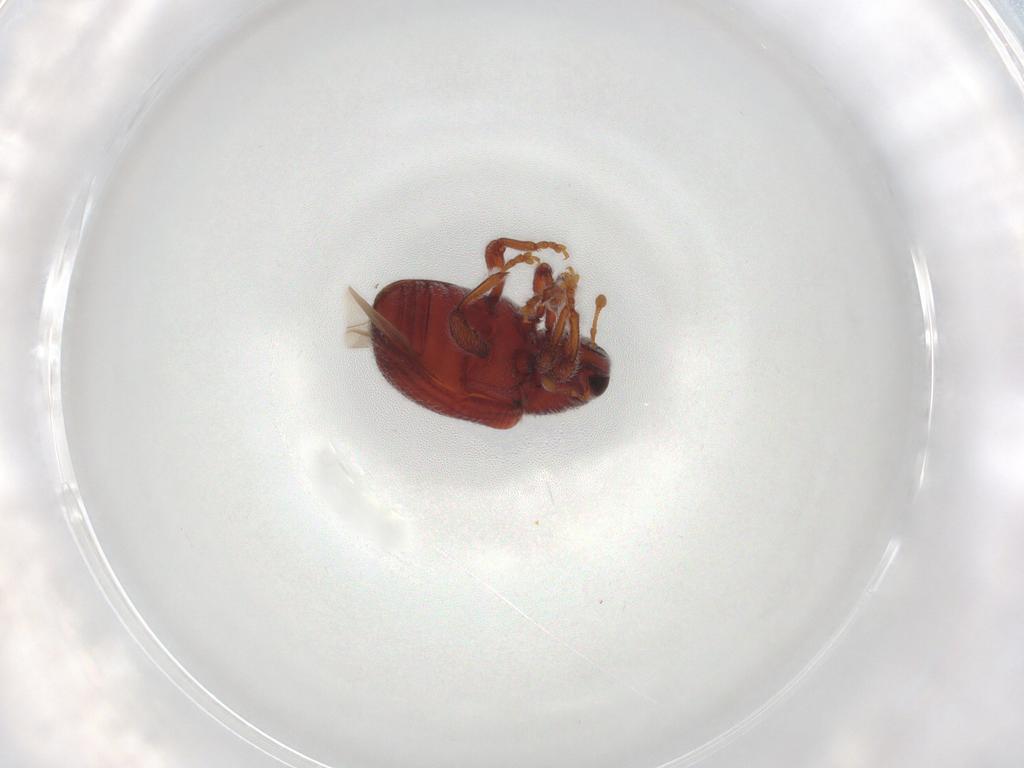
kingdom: Animalia
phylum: Arthropoda
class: Insecta
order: Coleoptera
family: Curculionidae
